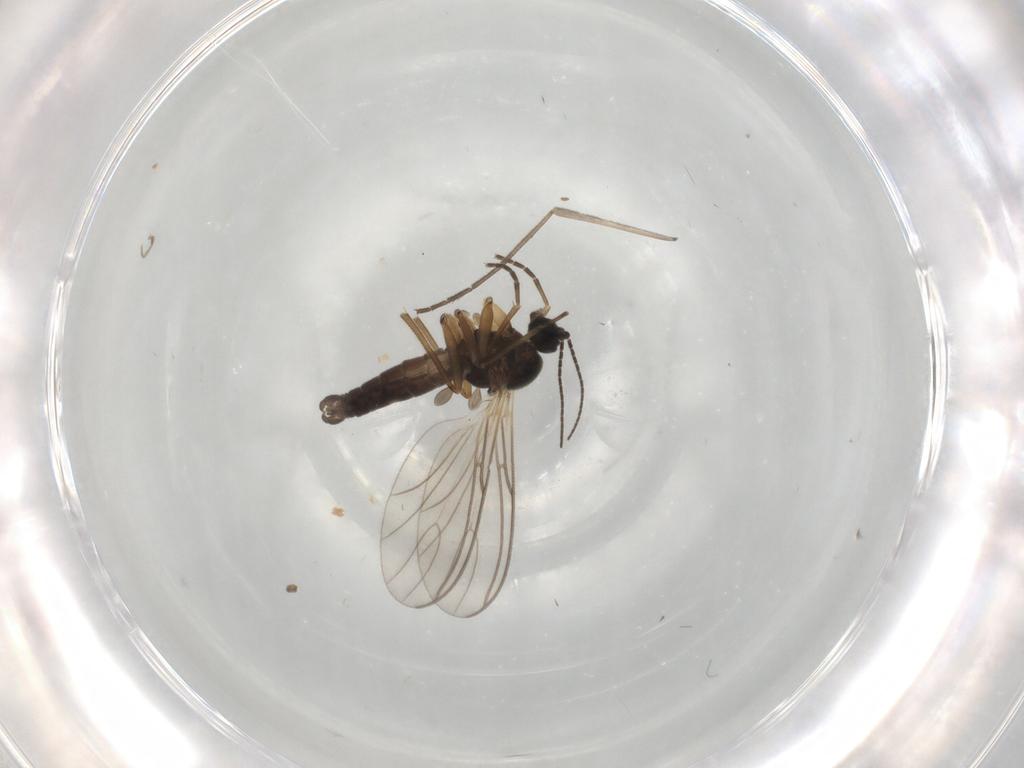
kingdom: Animalia
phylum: Arthropoda
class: Insecta
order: Diptera
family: Chironomidae
